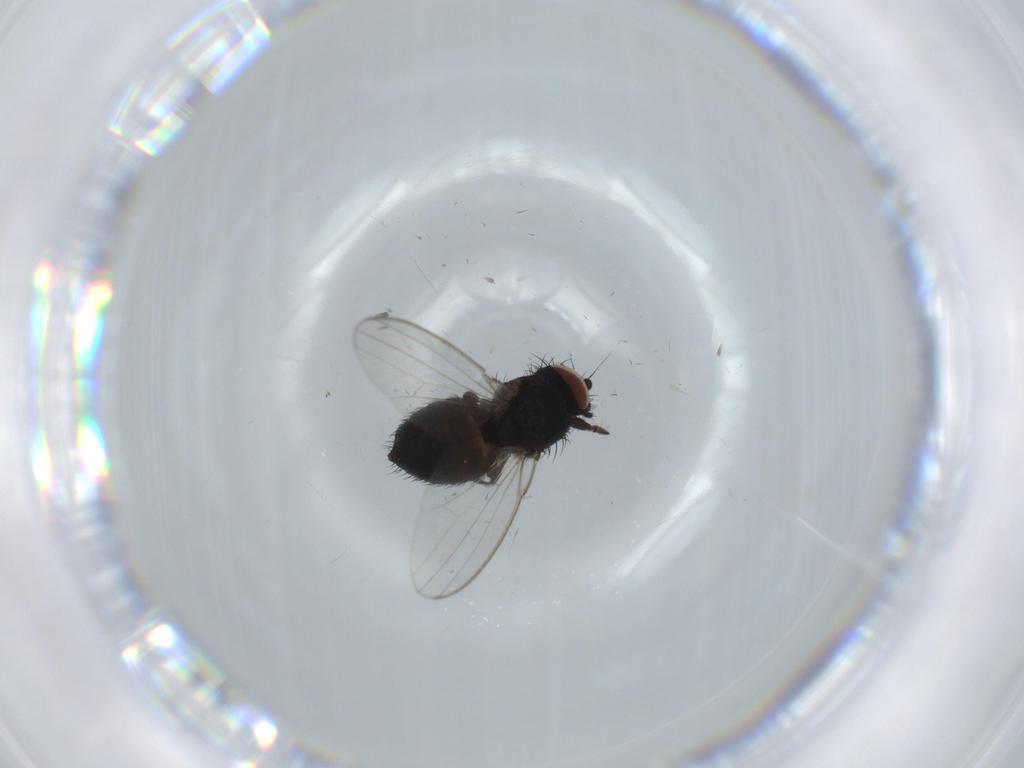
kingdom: Animalia
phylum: Arthropoda
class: Insecta
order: Diptera
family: Milichiidae
